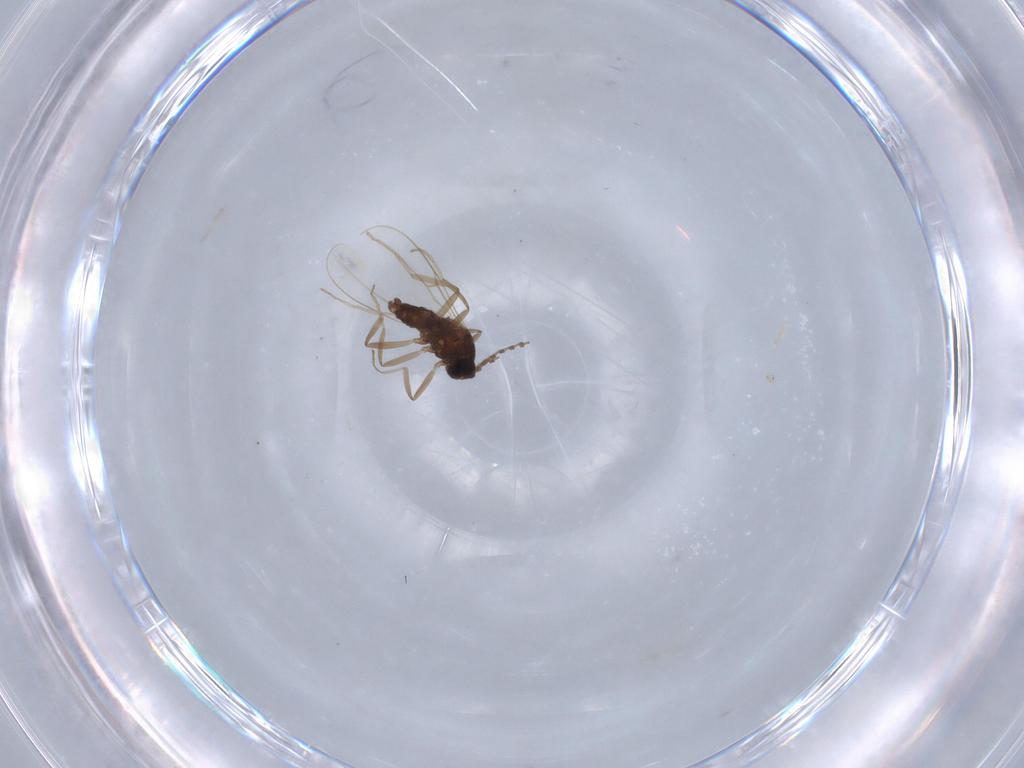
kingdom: Animalia
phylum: Arthropoda
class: Insecta
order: Diptera
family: Cecidomyiidae
